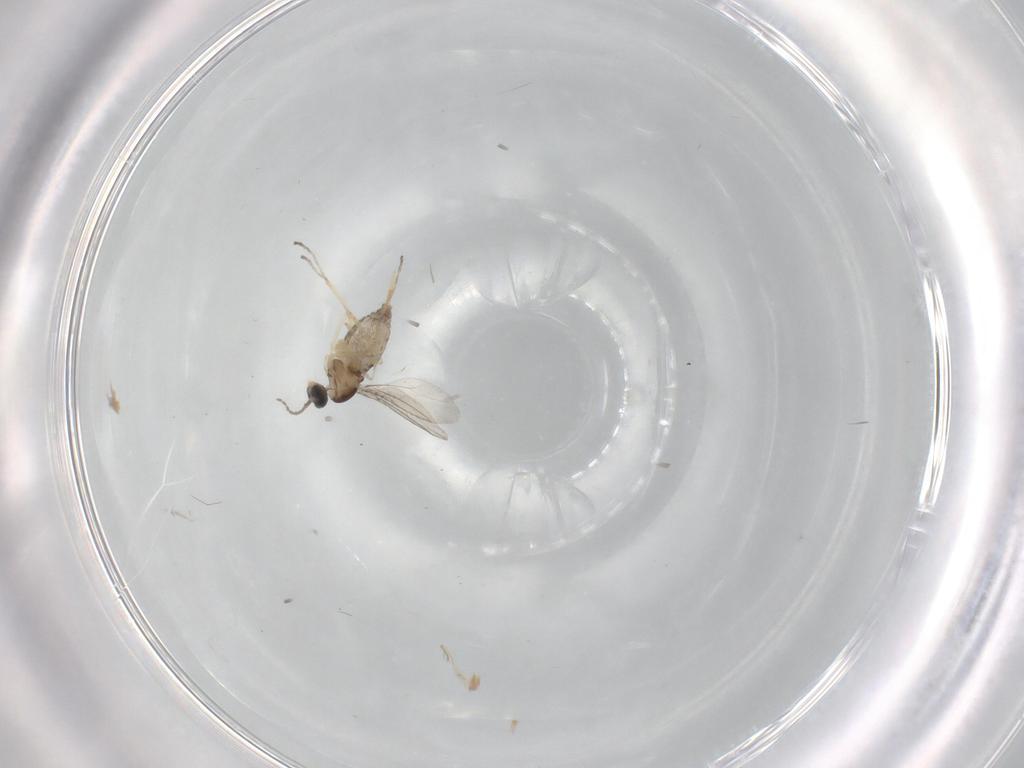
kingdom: Animalia
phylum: Arthropoda
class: Insecta
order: Diptera
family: Cecidomyiidae
